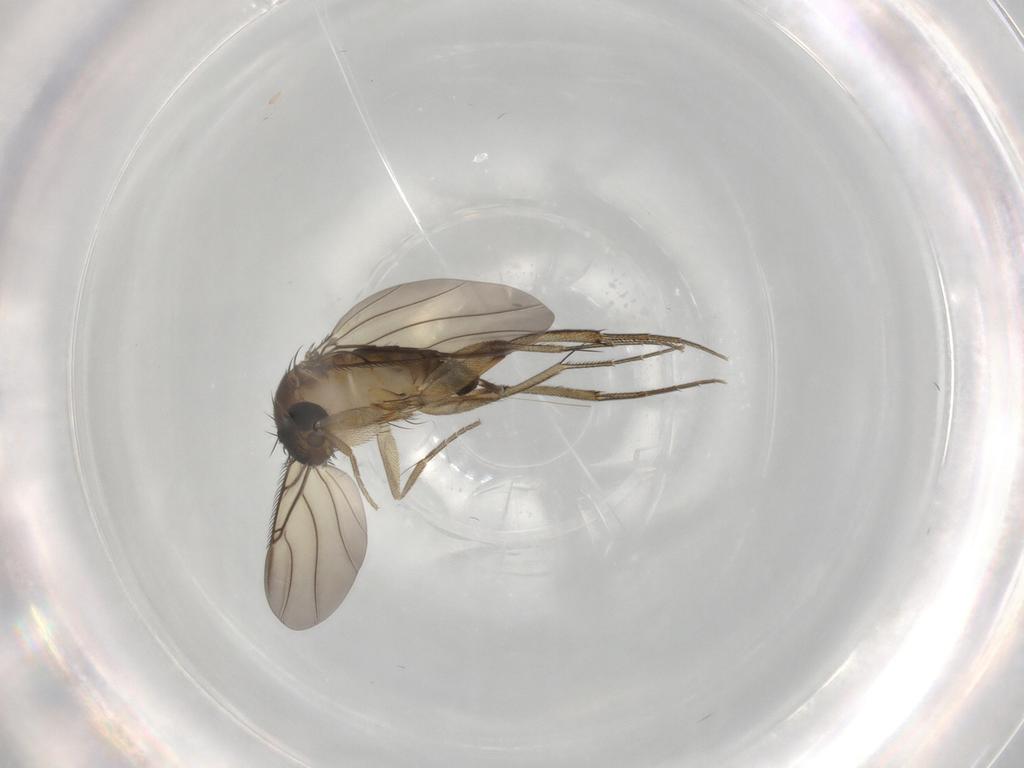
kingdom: Animalia
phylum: Arthropoda
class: Insecta
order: Diptera
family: Phoridae
